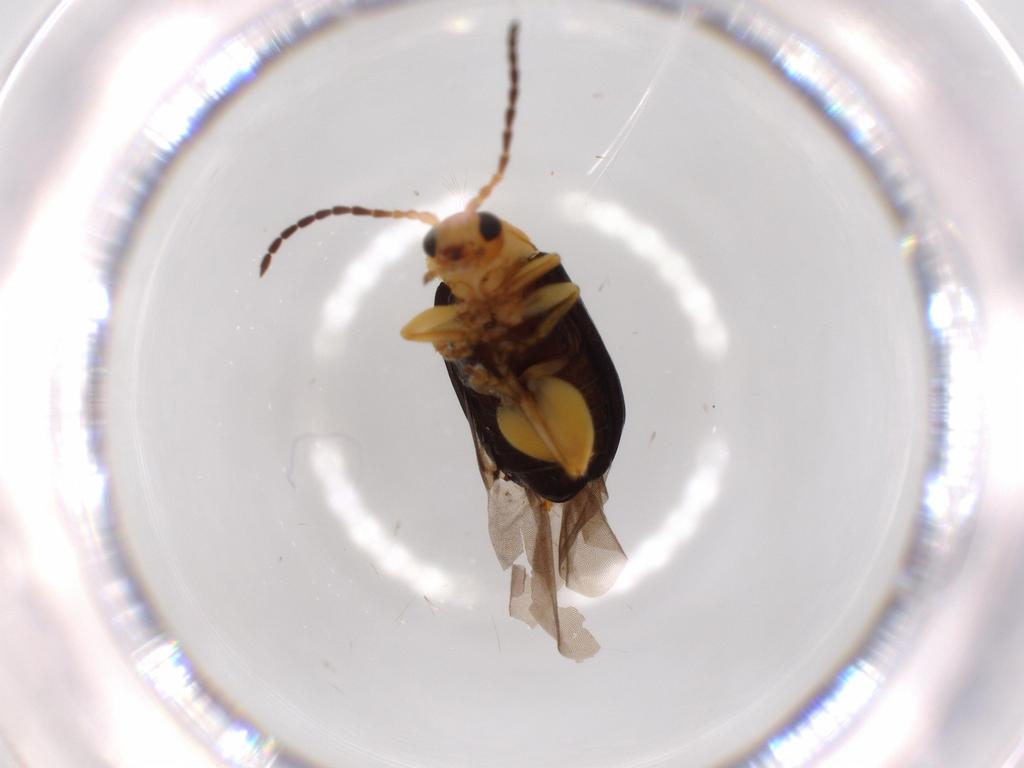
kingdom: Animalia
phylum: Arthropoda
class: Insecta
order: Coleoptera
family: Chrysomelidae
